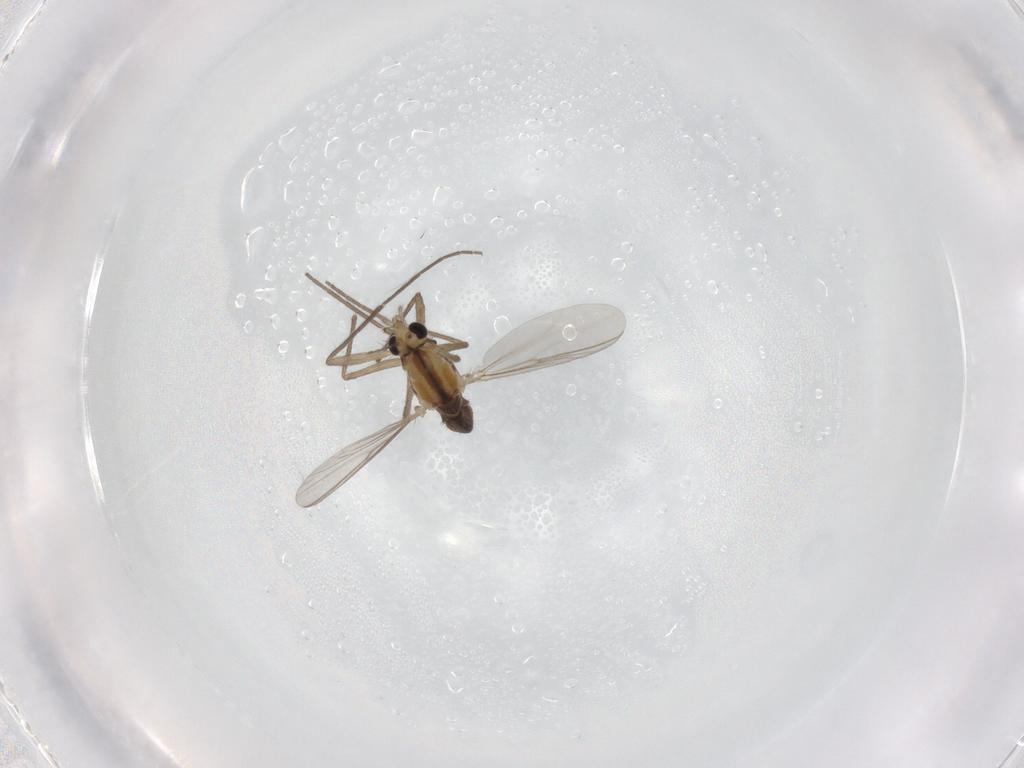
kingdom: Animalia
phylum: Arthropoda
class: Insecta
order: Diptera
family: Chironomidae
